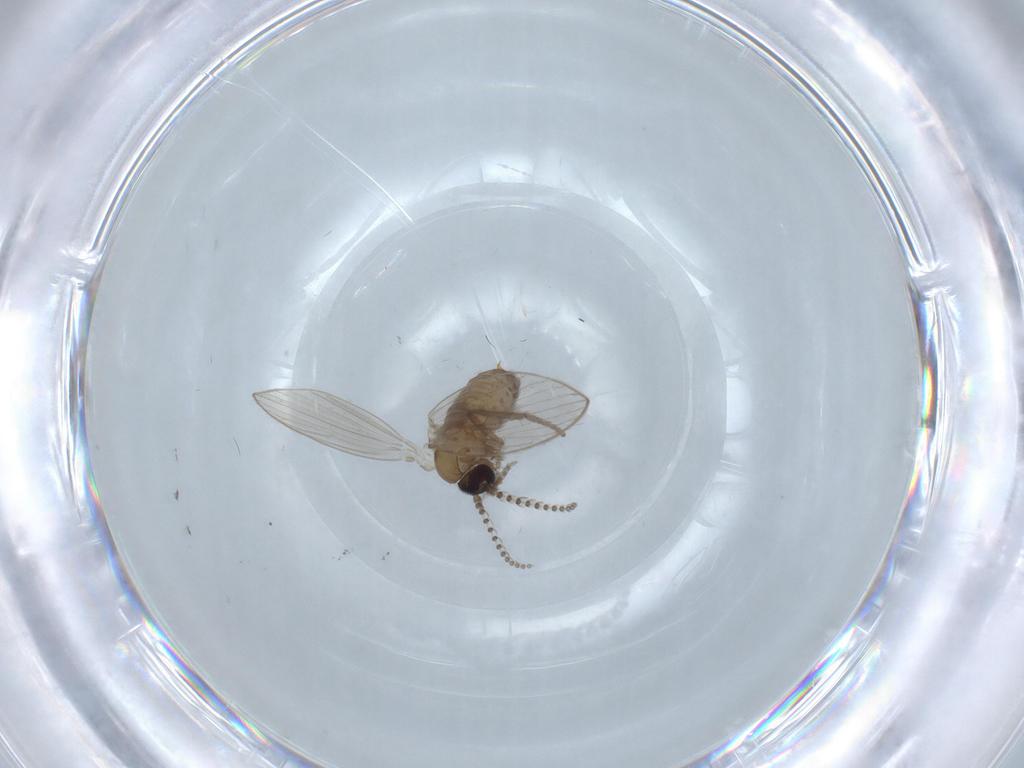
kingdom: Animalia
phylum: Arthropoda
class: Insecta
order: Diptera
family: Psychodidae
